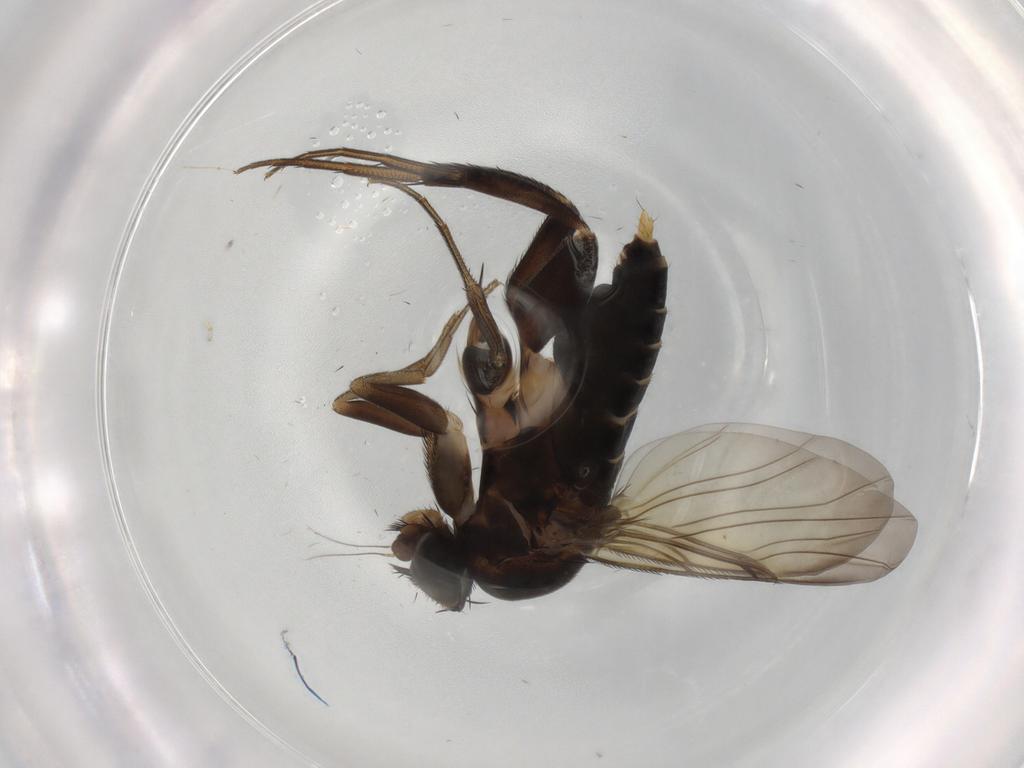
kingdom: Animalia
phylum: Arthropoda
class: Insecta
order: Diptera
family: Phoridae
